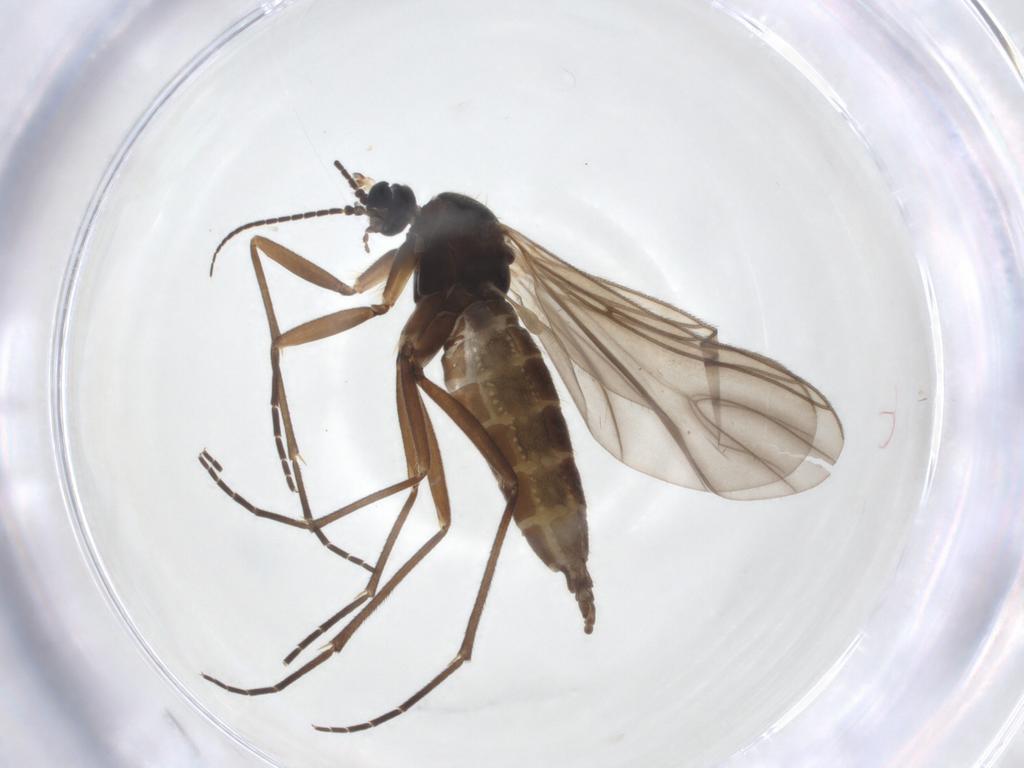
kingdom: Animalia
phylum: Arthropoda
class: Insecta
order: Diptera
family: Sciaridae
